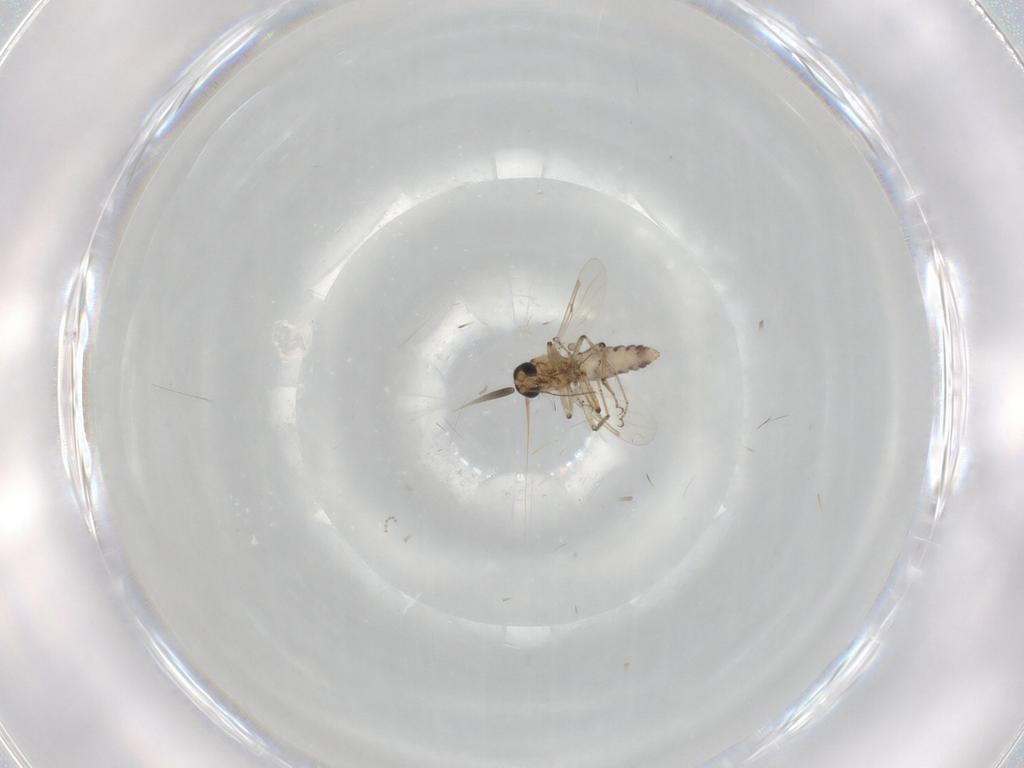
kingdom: Animalia
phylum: Arthropoda
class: Insecta
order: Diptera
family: Ceratopogonidae
